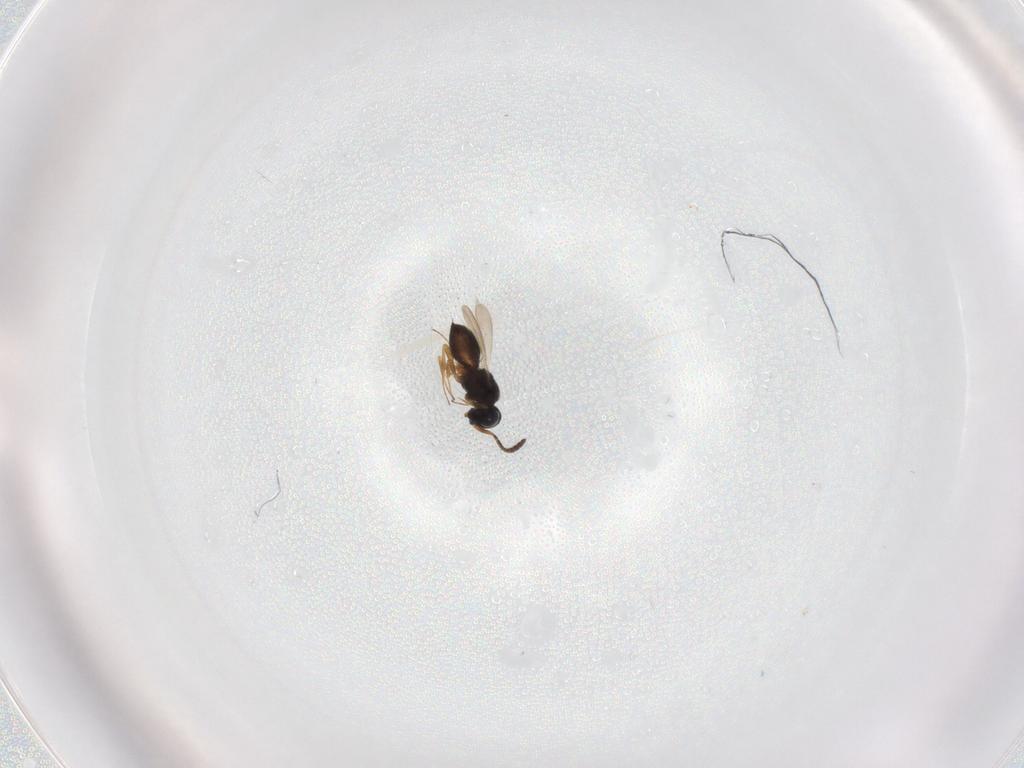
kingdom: Animalia
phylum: Arthropoda
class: Insecta
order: Hymenoptera
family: Scelionidae
